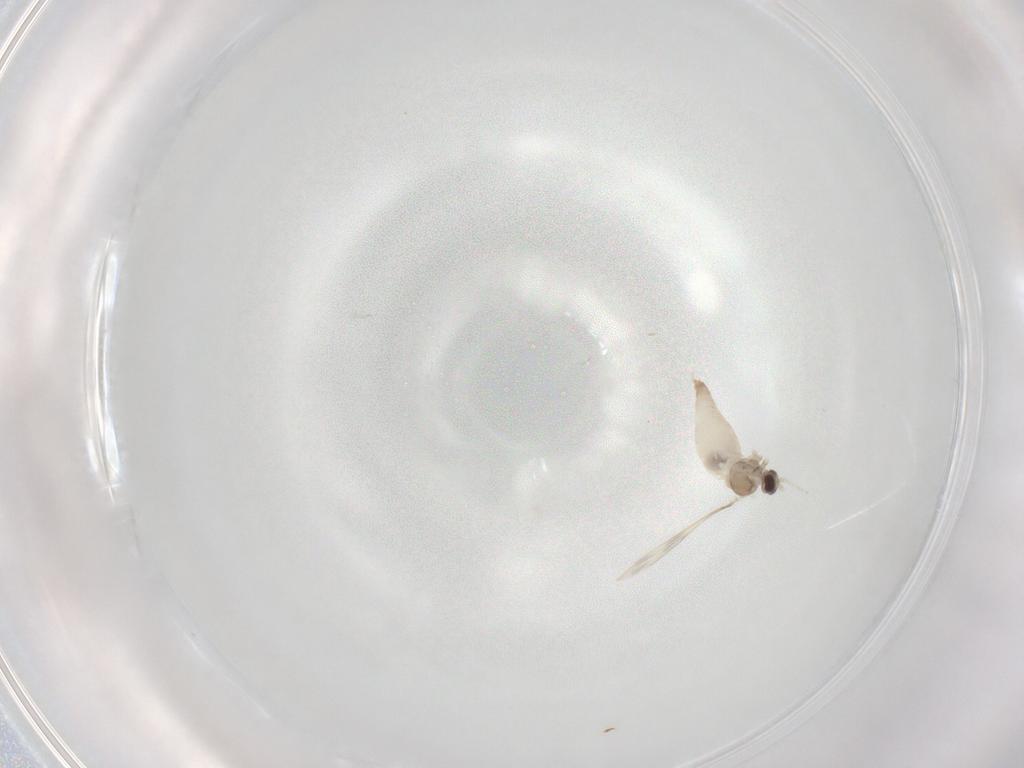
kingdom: Animalia
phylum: Arthropoda
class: Insecta
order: Diptera
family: Cecidomyiidae
